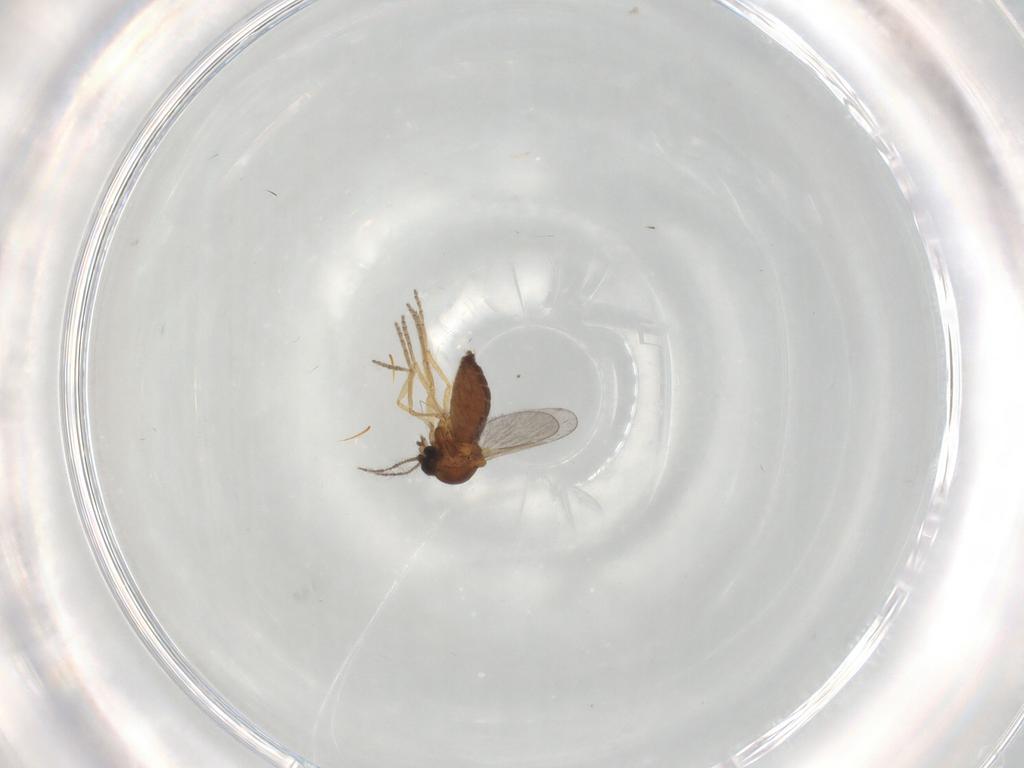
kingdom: Animalia
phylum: Arthropoda
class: Insecta
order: Diptera
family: Ceratopogonidae
